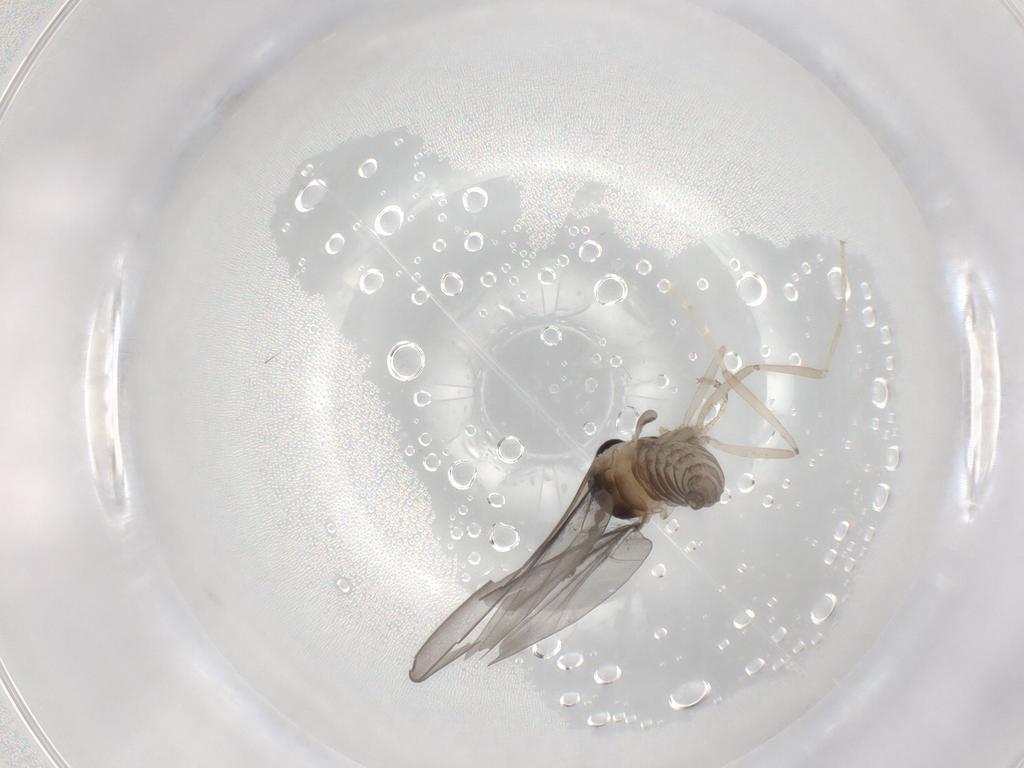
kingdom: Animalia
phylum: Arthropoda
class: Insecta
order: Diptera
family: Cecidomyiidae
